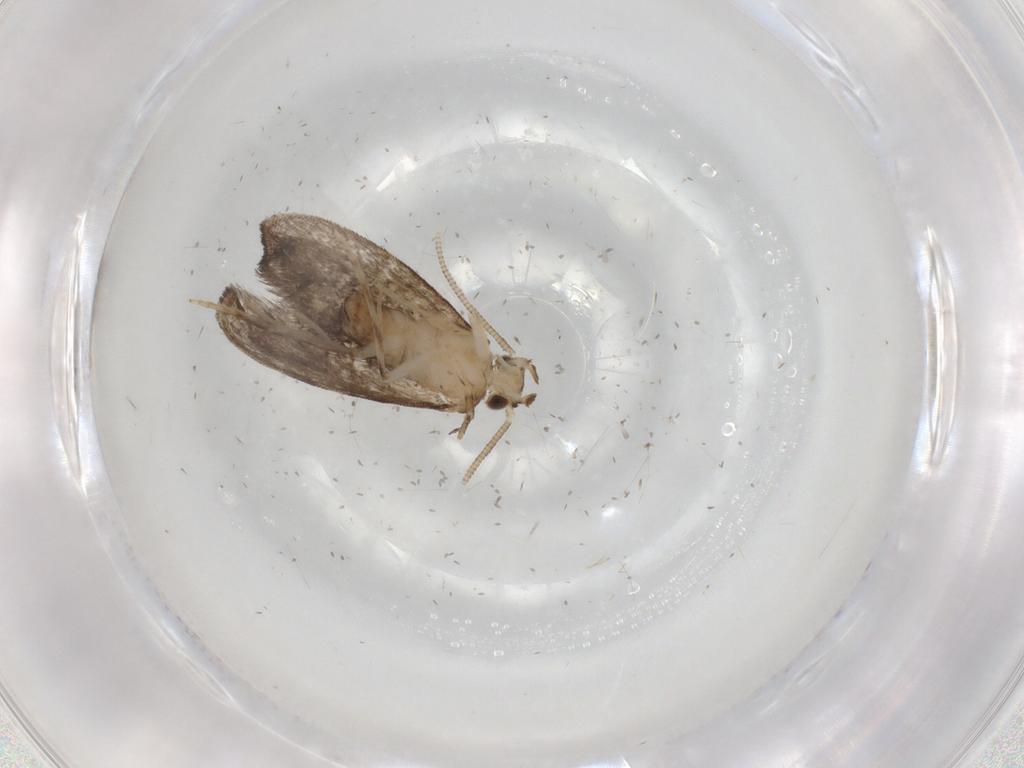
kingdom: Animalia
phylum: Arthropoda
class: Insecta
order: Lepidoptera
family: Dryadaulidae
